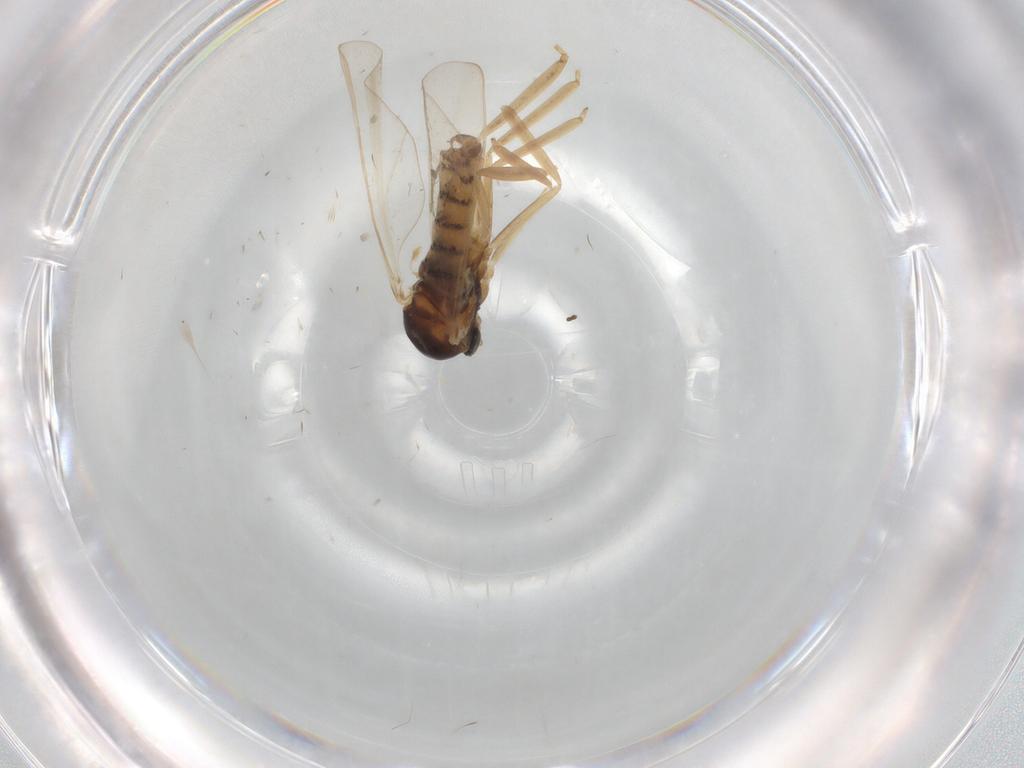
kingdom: Animalia
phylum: Arthropoda
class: Insecta
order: Diptera
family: Cecidomyiidae
